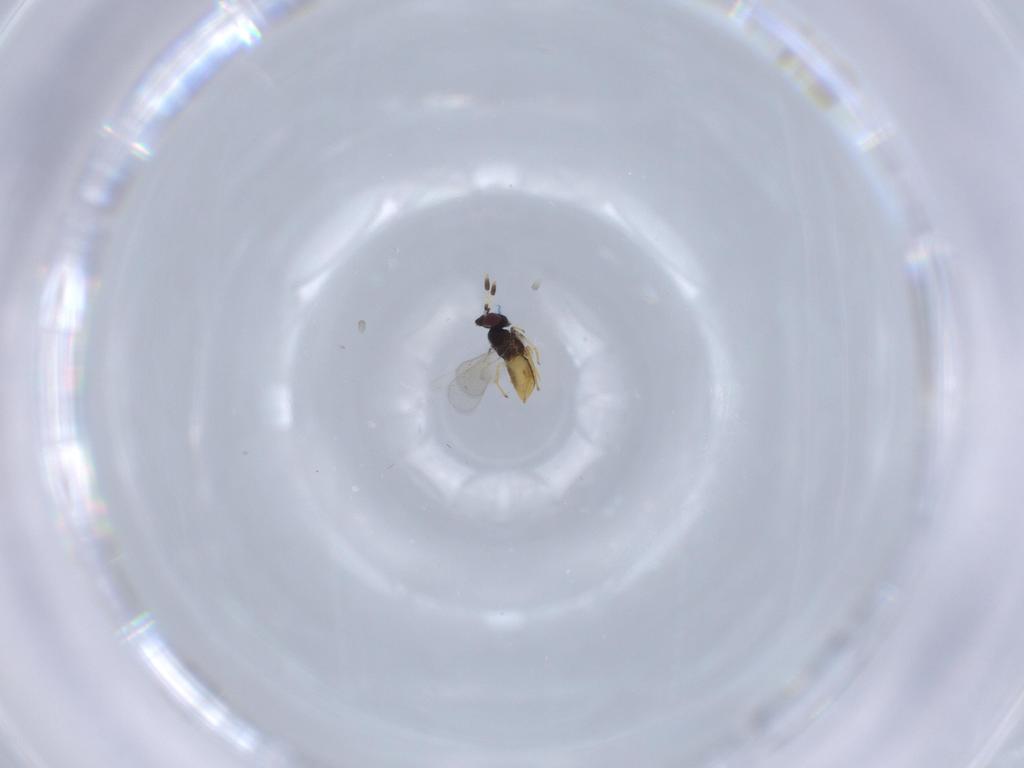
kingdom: Animalia
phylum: Arthropoda
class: Insecta
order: Hymenoptera
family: Aphelinidae
